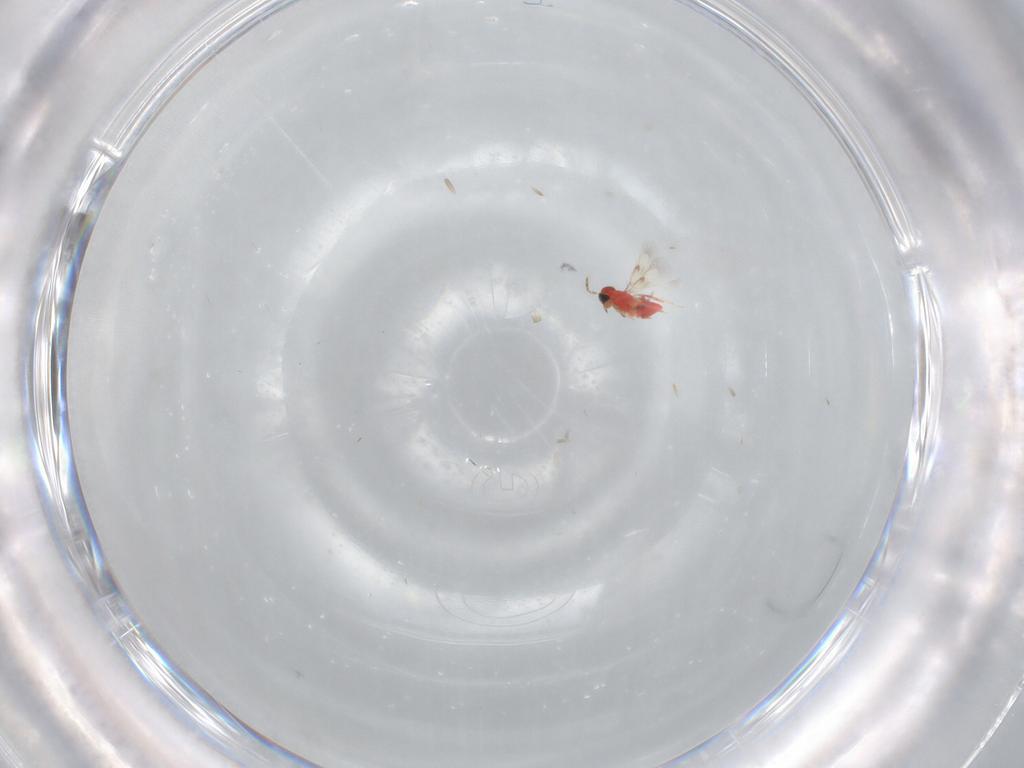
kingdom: Animalia
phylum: Arthropoda
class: Insecta
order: Hymenoptera
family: Trichogrammatidae
